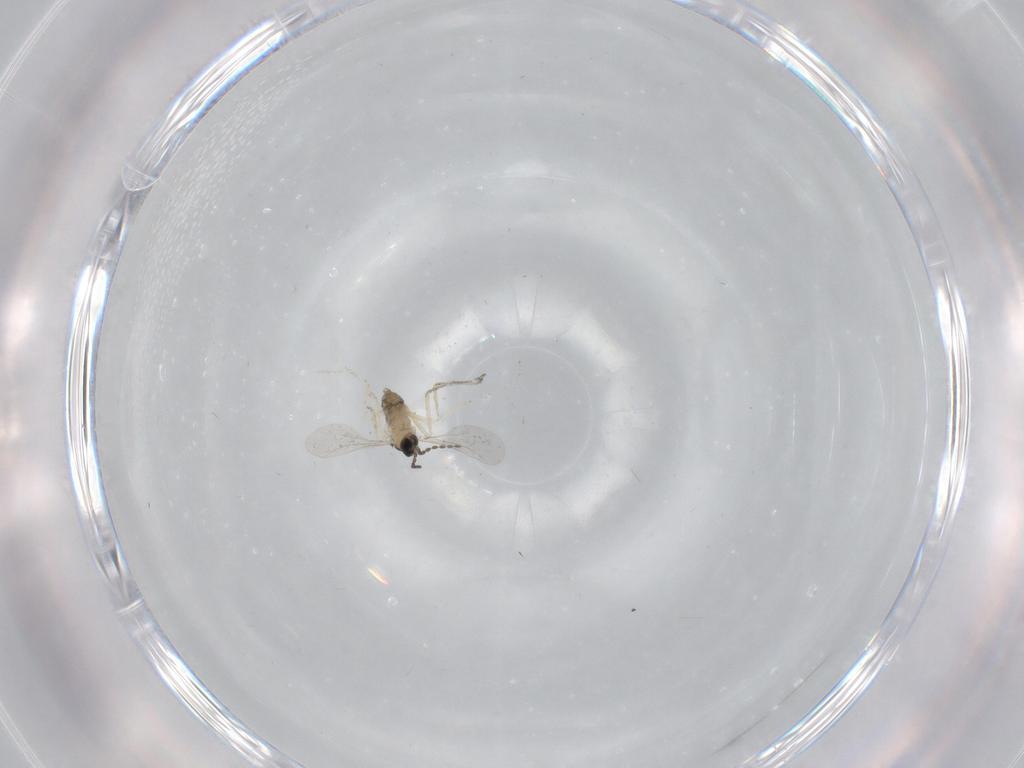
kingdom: Animalia
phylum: Arthropoda
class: Insecta
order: Diptera
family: Cecidomyiidae
